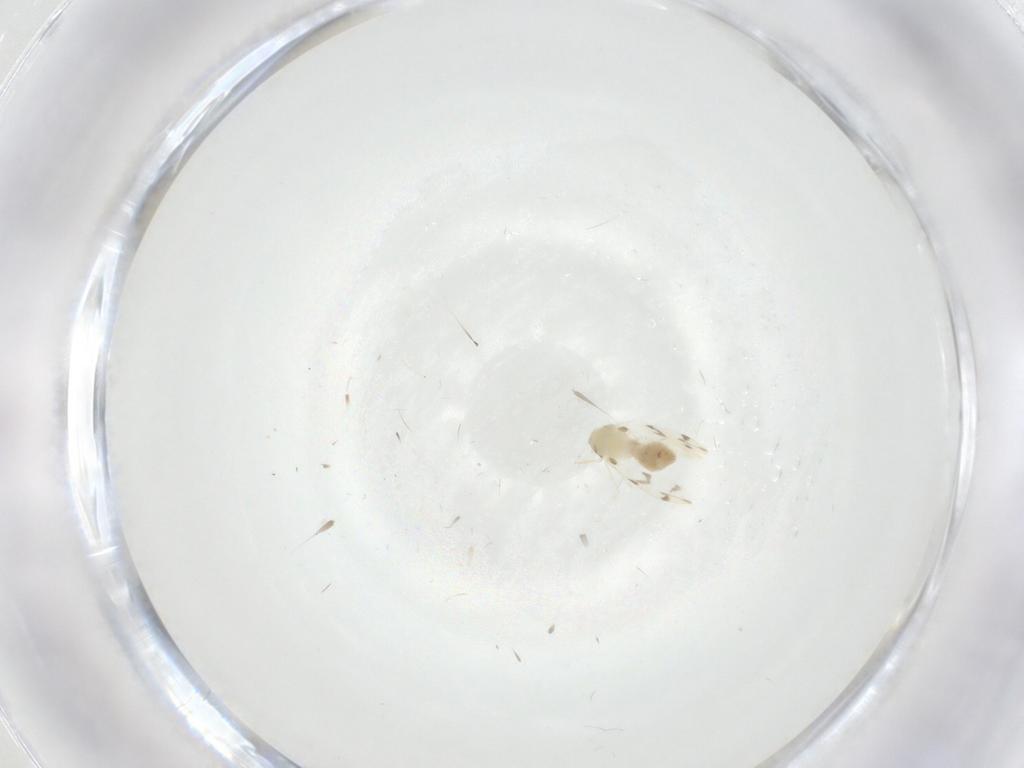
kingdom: Animalia
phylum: Arthropoda
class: Insecta
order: Hemiptera
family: Aleyrodidae
